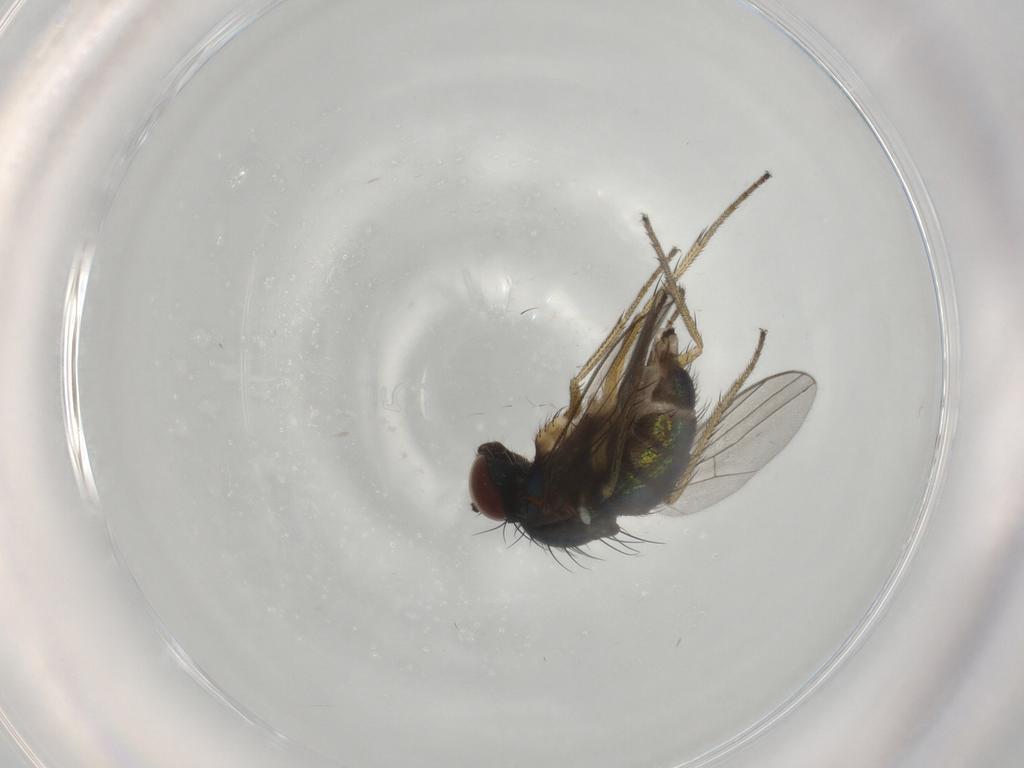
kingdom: Animalia
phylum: Arthropoda
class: Insecta
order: Diptera
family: Dolichopodidae
